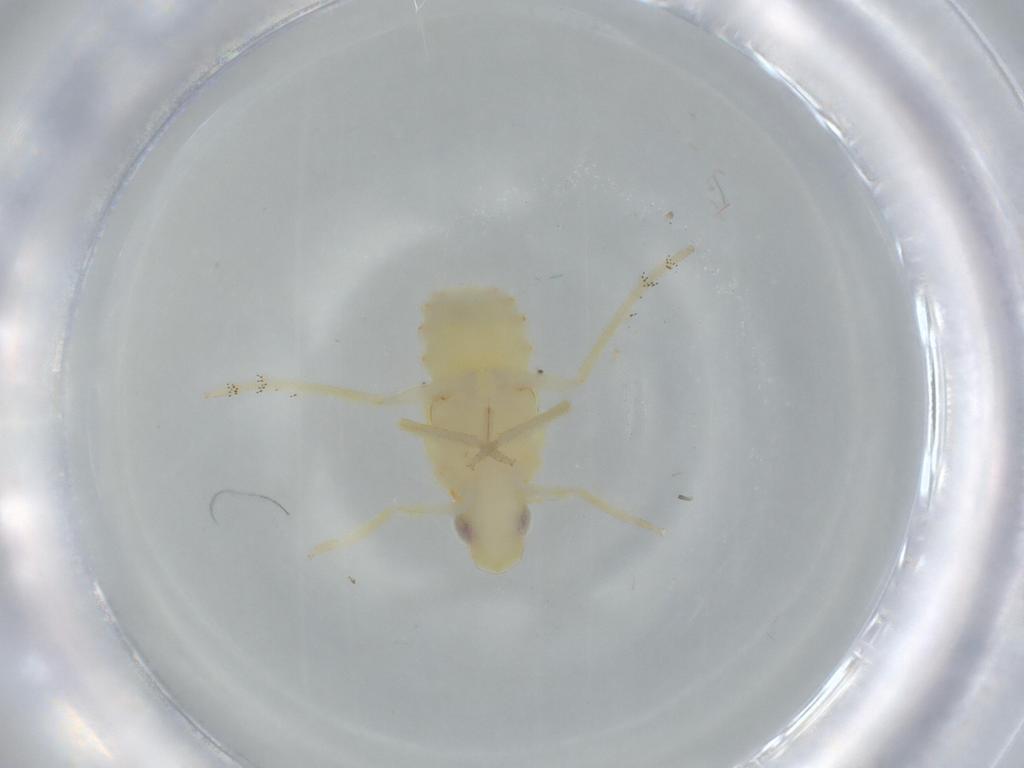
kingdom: Animalia
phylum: Arthropoda
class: Insecta
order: Hemiptera
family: Tropiduchidae
